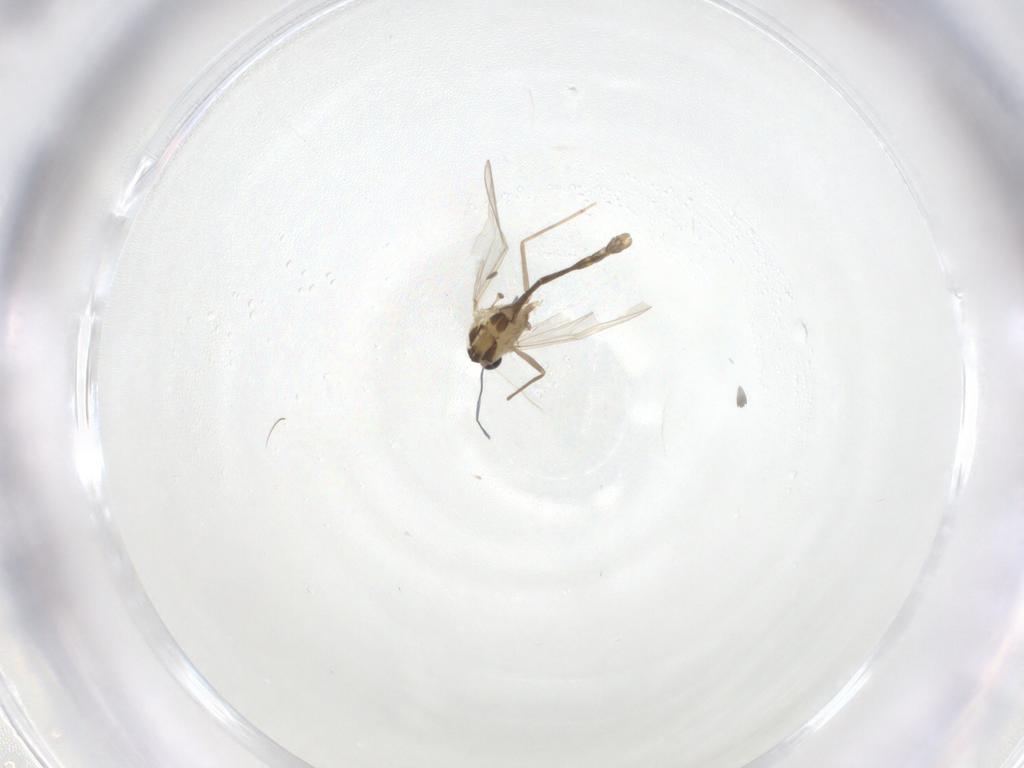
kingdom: Animalia
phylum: Arthropoda
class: Insecta
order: Diptera
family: Chironomidae
